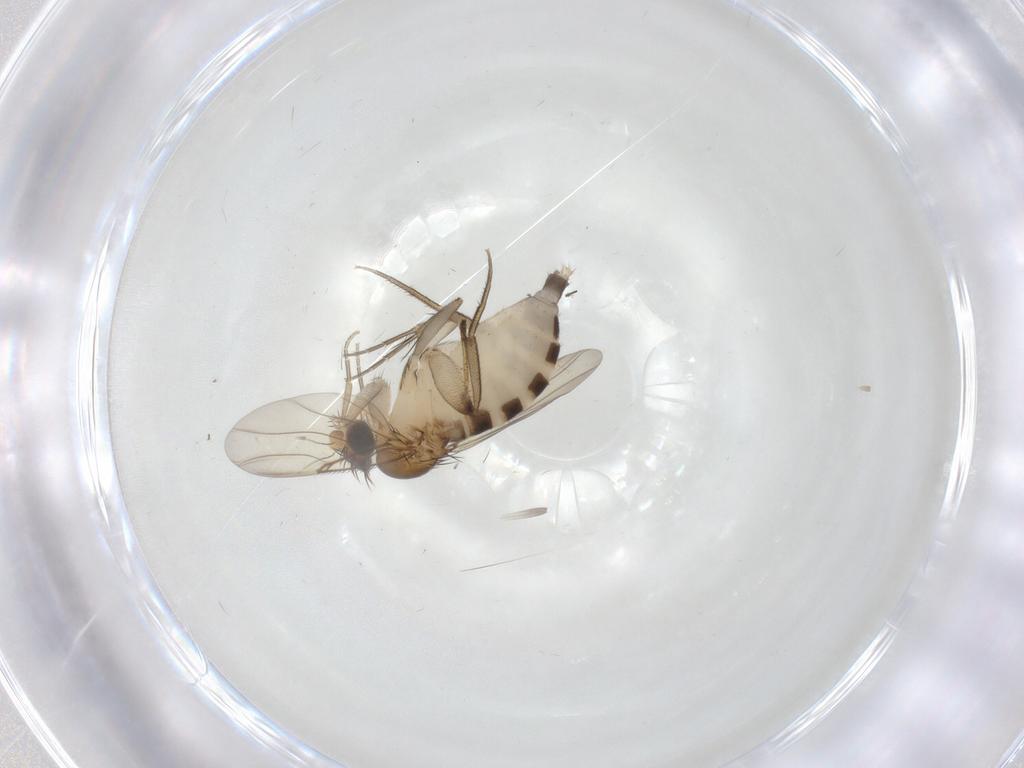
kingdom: Animalia
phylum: Arthropoda
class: Insecta
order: Diptera
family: Phoridae
